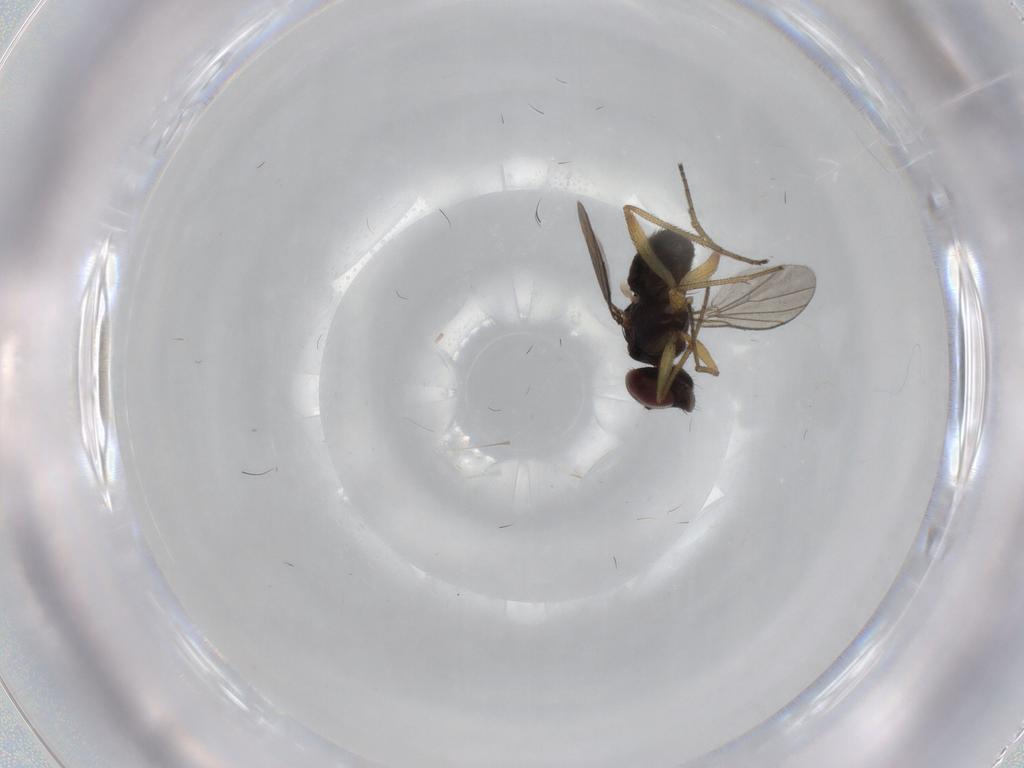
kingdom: Animalia
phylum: Arthropoda
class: Insecta
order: Diptera
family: Dolichopodidae
